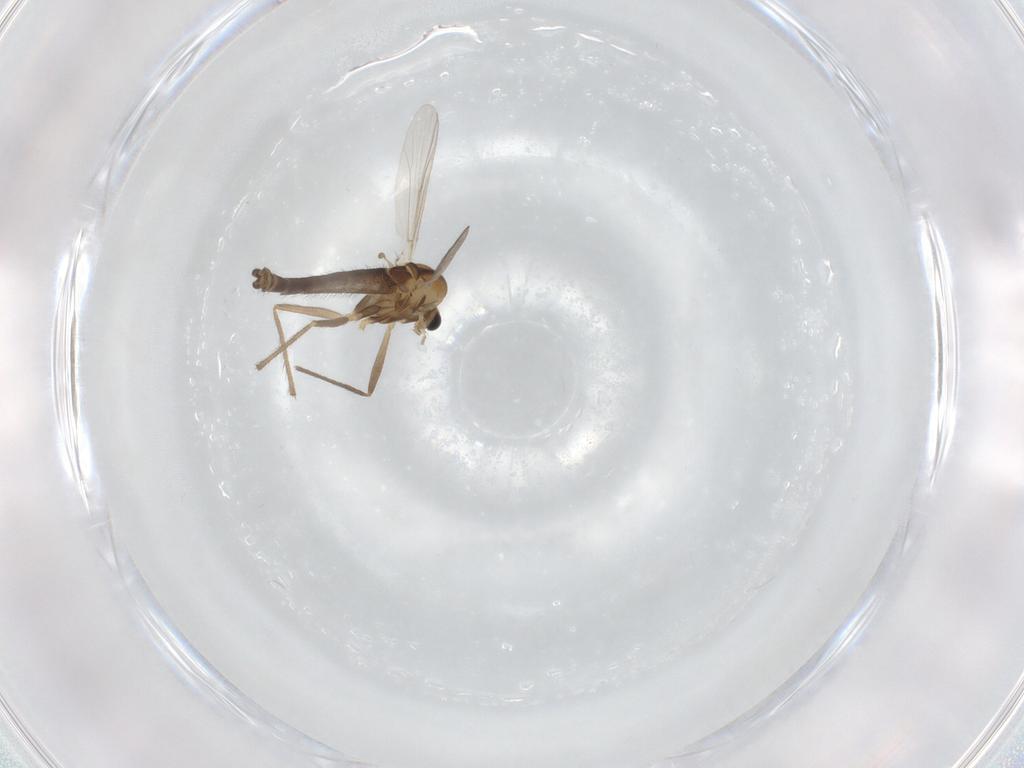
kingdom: Animalia
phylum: Arthropoda
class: Insecta
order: Diptera
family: Chironomidae
